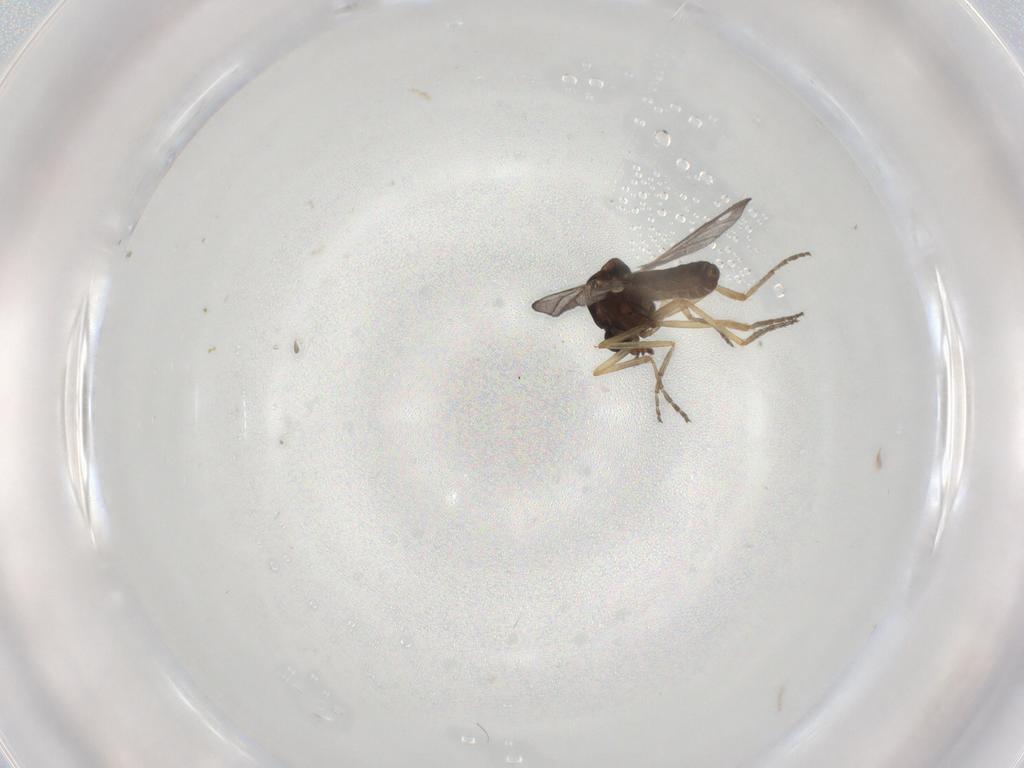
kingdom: Animalia
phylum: Arthropoda
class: Insecta
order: Diptera
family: Ceratopogonidae
